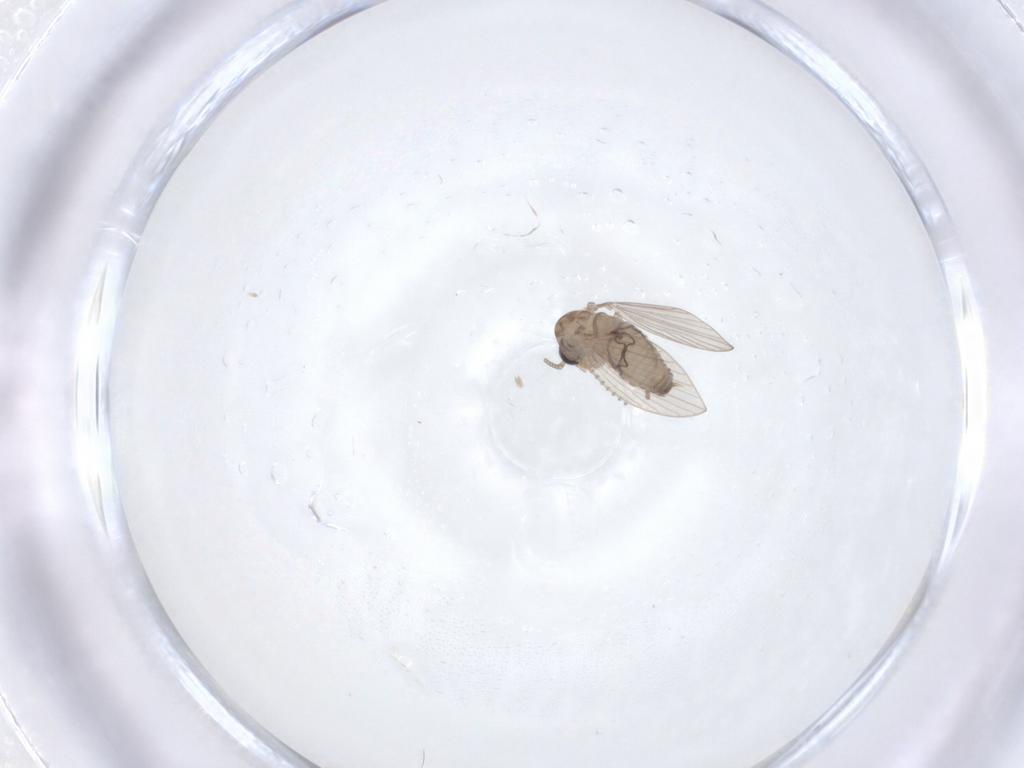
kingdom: Animalia
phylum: Arthropoda
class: Insecta
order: Diptera
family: Psychodidae
